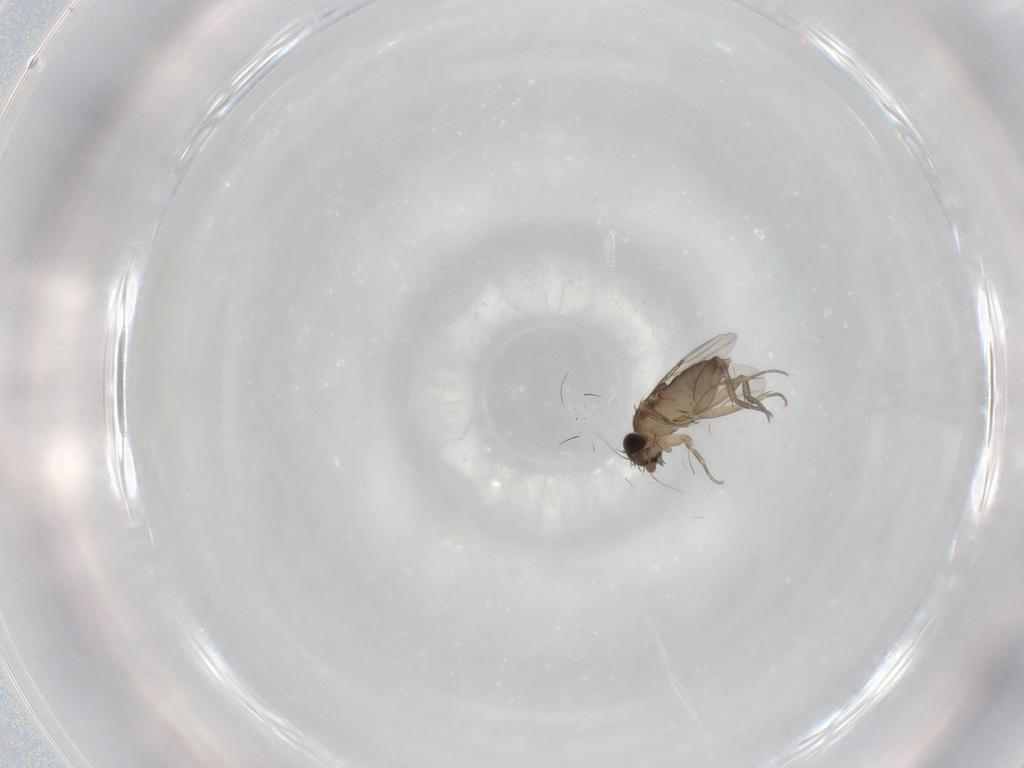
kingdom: Animalia
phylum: Arthropoda
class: Insecta
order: Diptera
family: Phoridae
